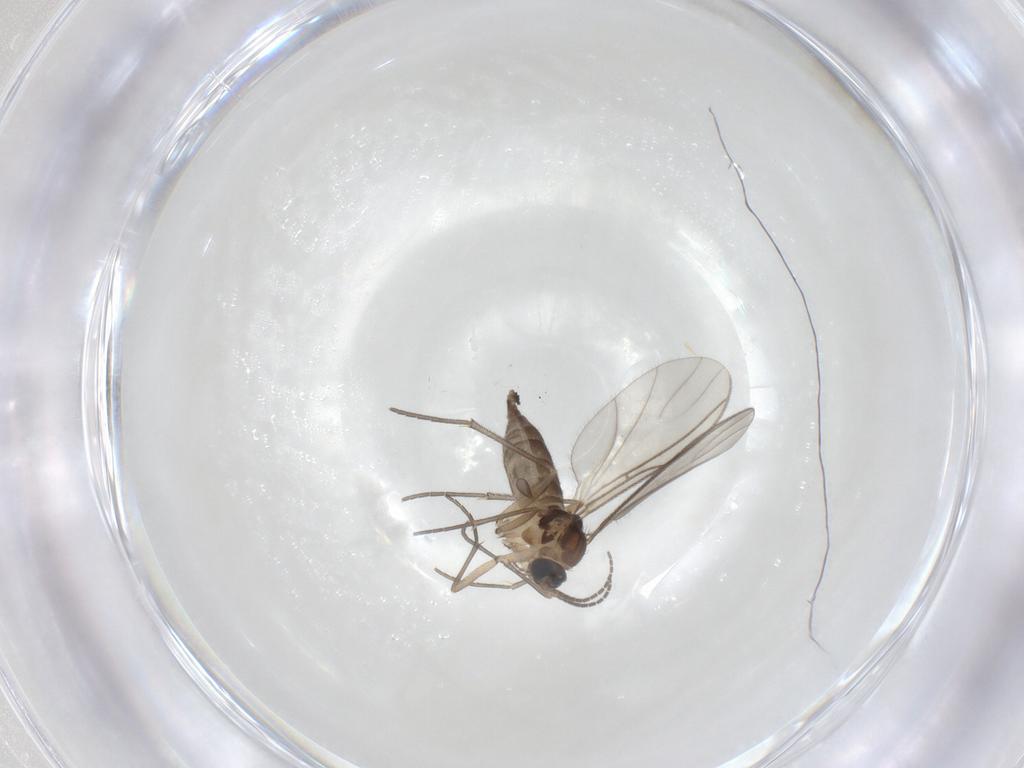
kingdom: Animalia
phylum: Arthropoda
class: Insecta
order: Diptera
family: Sciaridae
